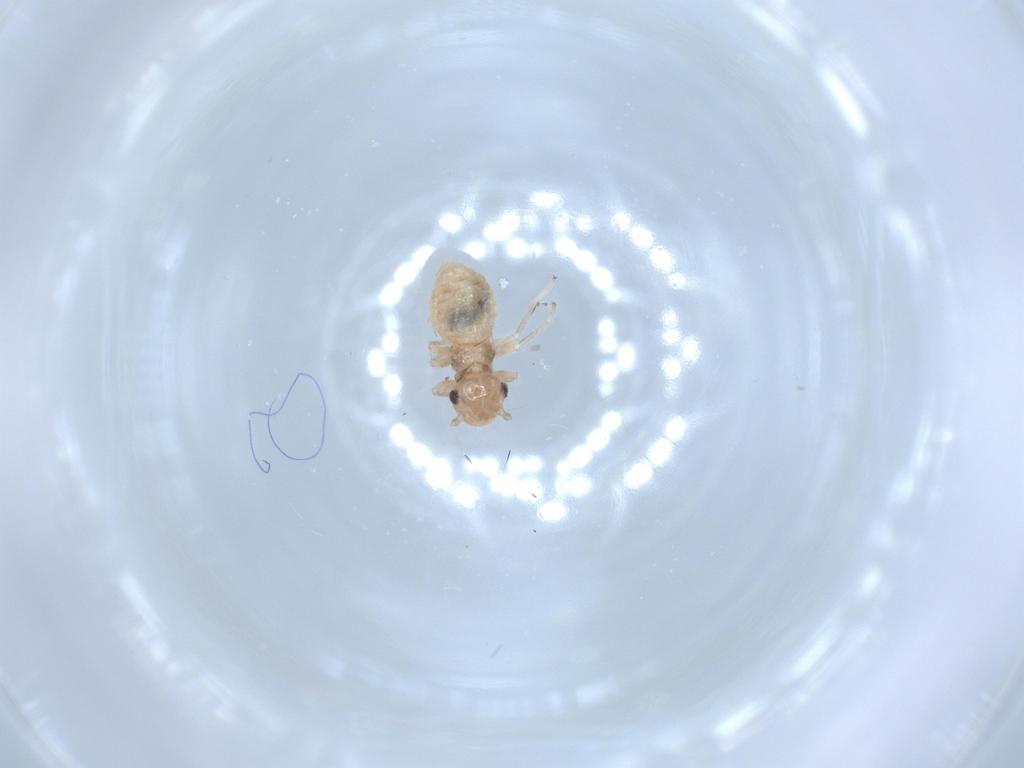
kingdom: Animalia
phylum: Arthropoda
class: Insecta
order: Psocodea
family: Amphipsocidae
